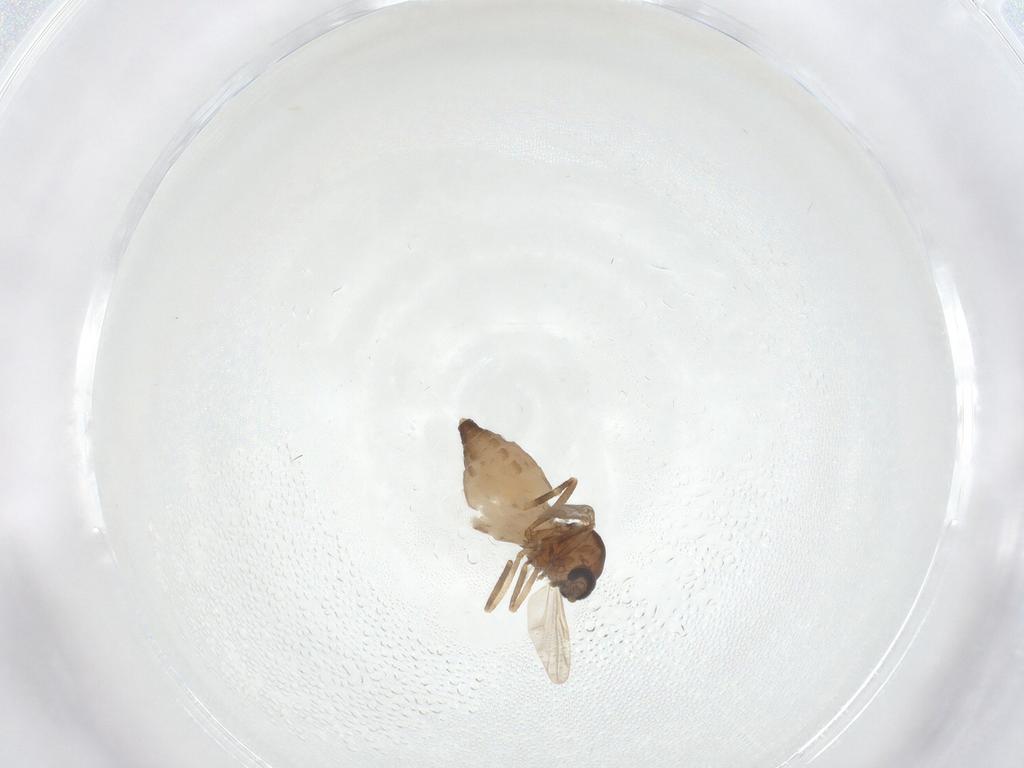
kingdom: Animalia
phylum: Arthropoda
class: Insecta
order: Diptera
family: Ceratopogonidae
